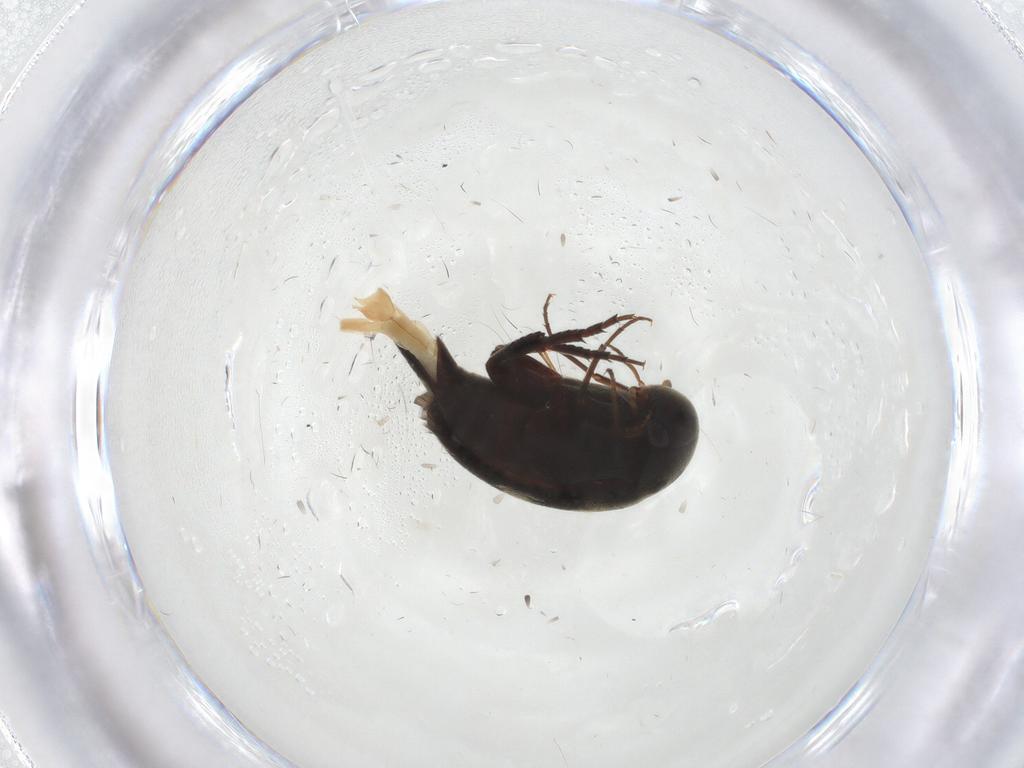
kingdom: Animalia
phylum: Arthropoda
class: Insecta
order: Coleoptera
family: Mordellidae
